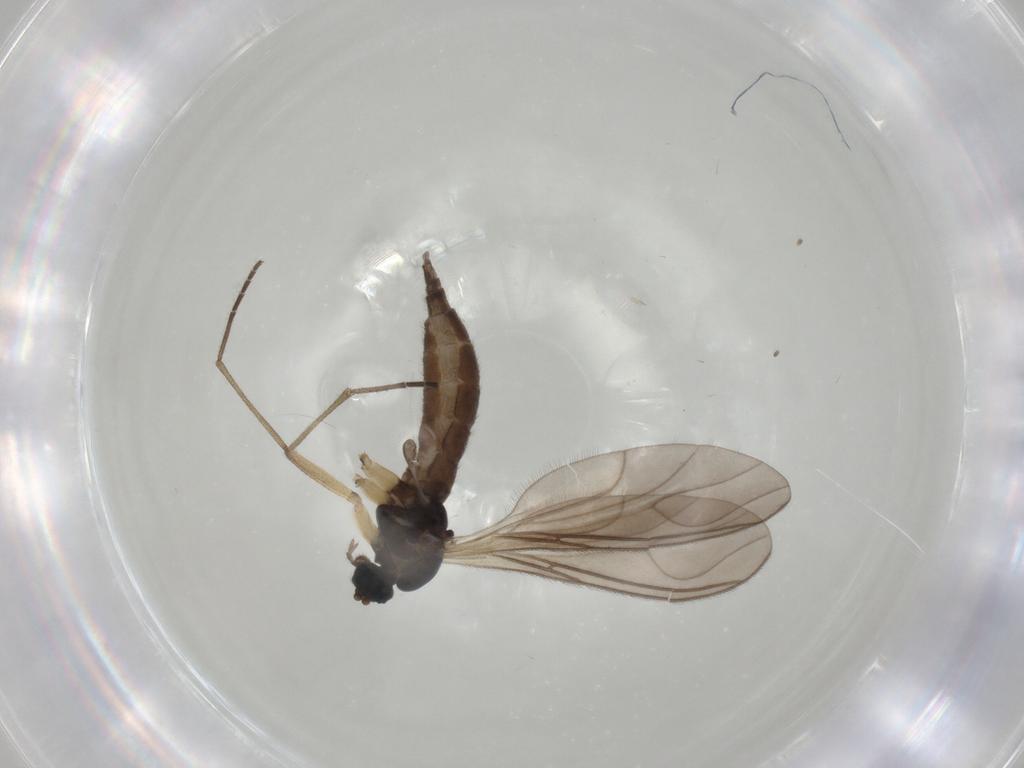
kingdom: Animalia
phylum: Arthropoda
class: Insecta
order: Diptera
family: Sciaridae
